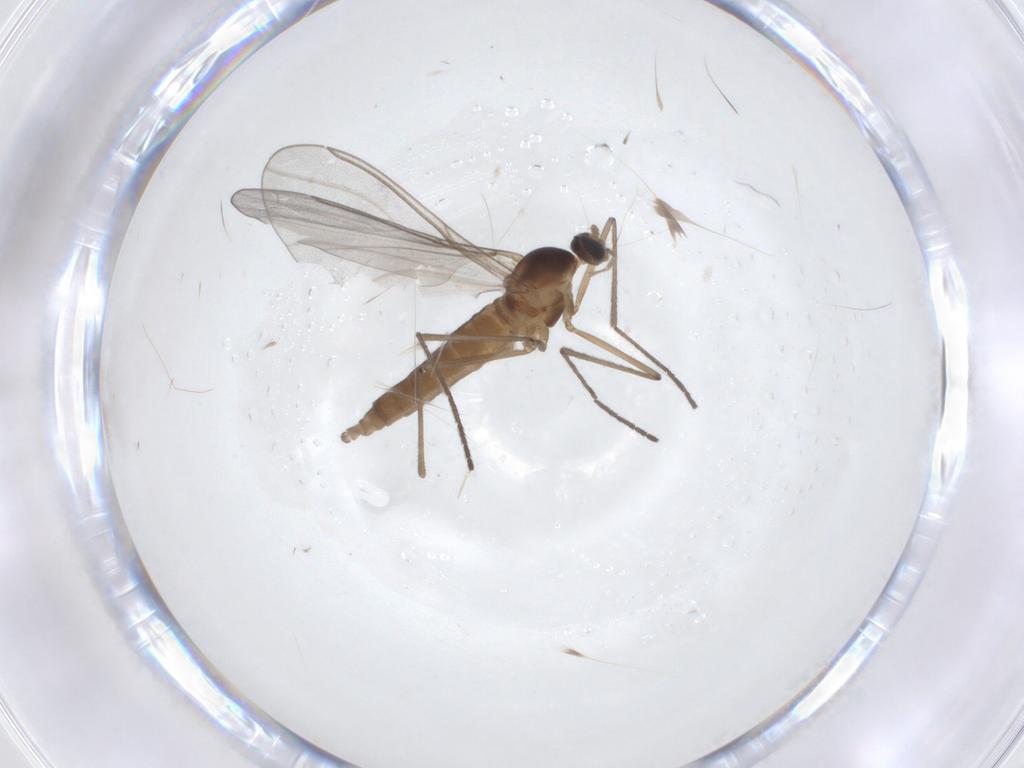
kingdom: Animalia
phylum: Arthropoda
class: Insecta
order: Diptera
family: Cecidomyiidae
